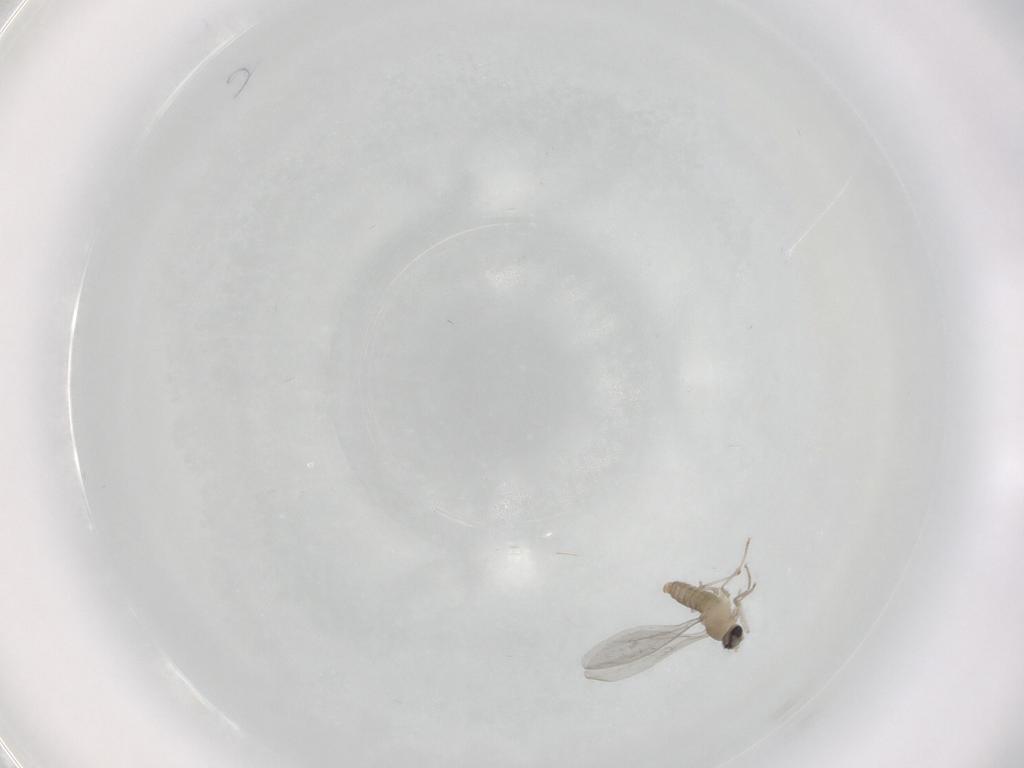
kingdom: Animalia
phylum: Arthropoda
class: Insecta
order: Diptera
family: Cecidomyiidae
